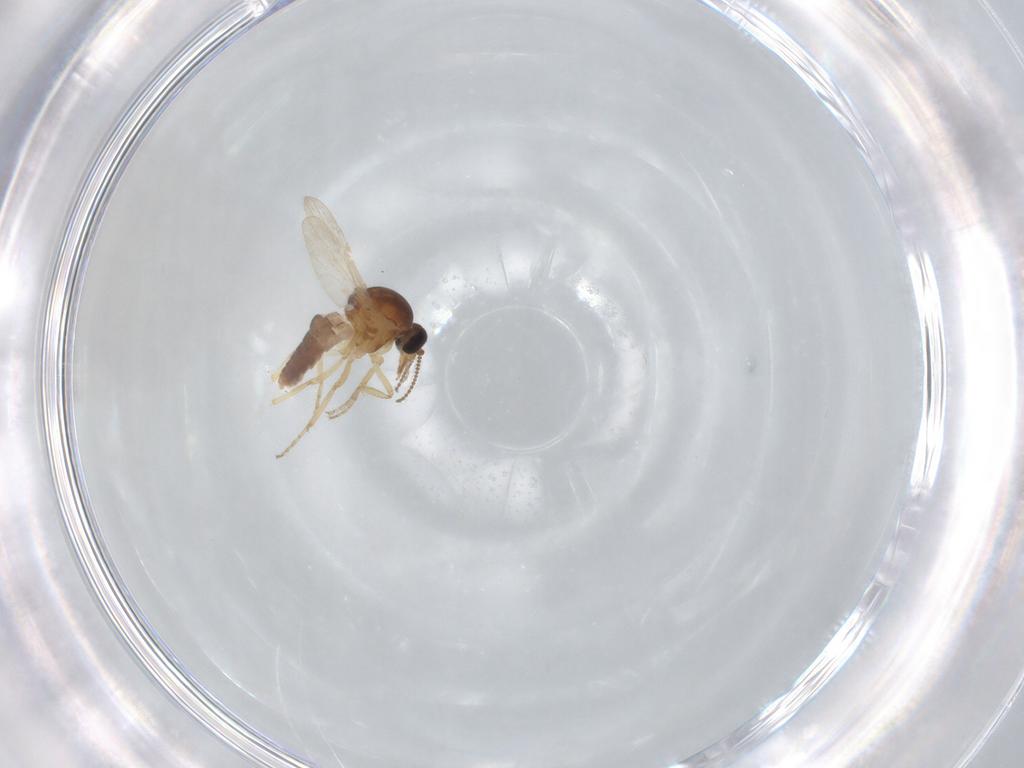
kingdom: Animalia
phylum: Arthropoda
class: Insecta
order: Diptera
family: Ceratopogonidae
